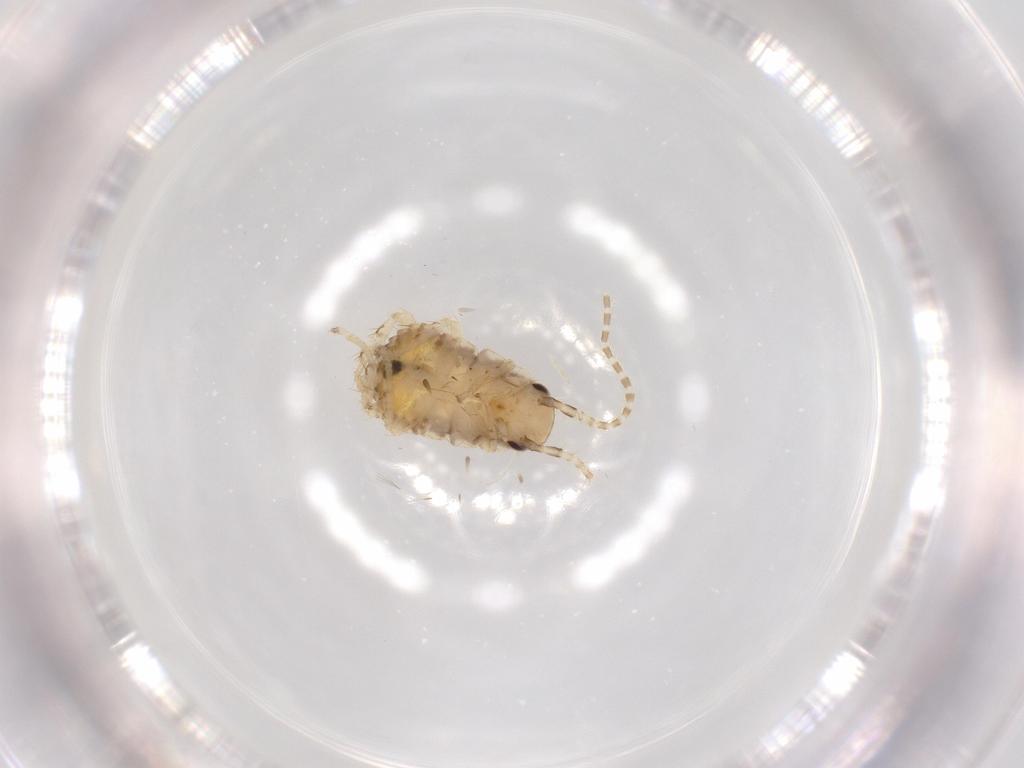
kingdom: Animalia
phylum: Arthropoda
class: Insecta
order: Blattodea
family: Ectobiidae
